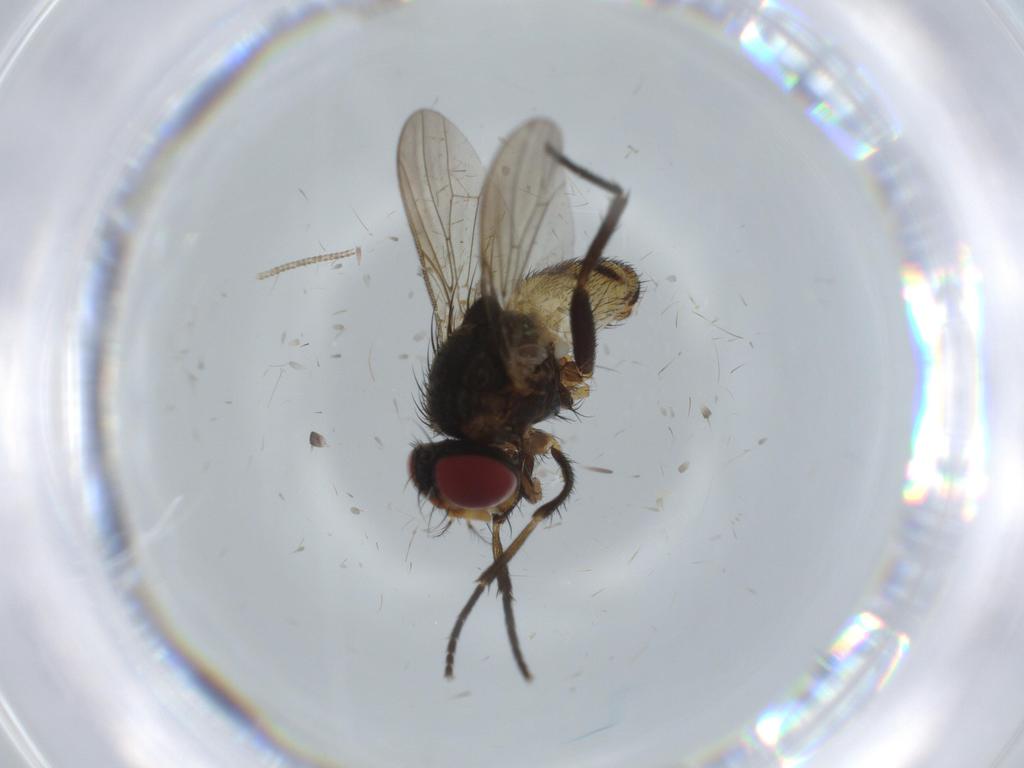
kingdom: Animalia
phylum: Arthropoda
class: Insecta
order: Diptera
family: Anthomyiidae
